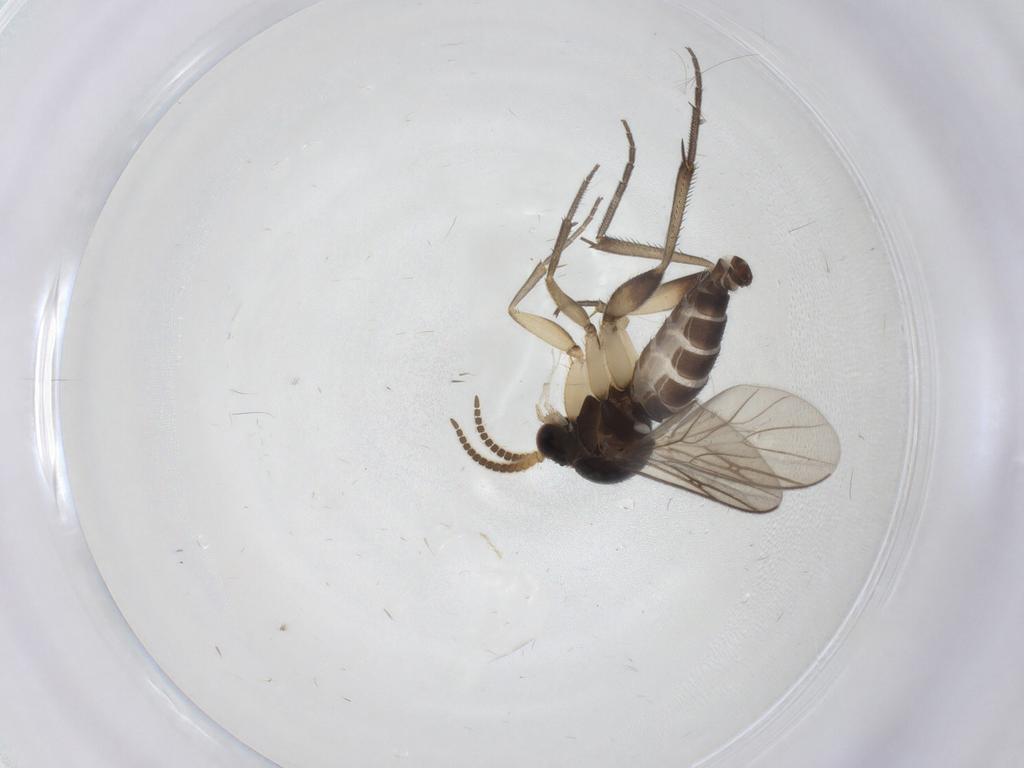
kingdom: Animalia
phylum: Arthropoda
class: Insecta
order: Diptera
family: Mycetophilidae
